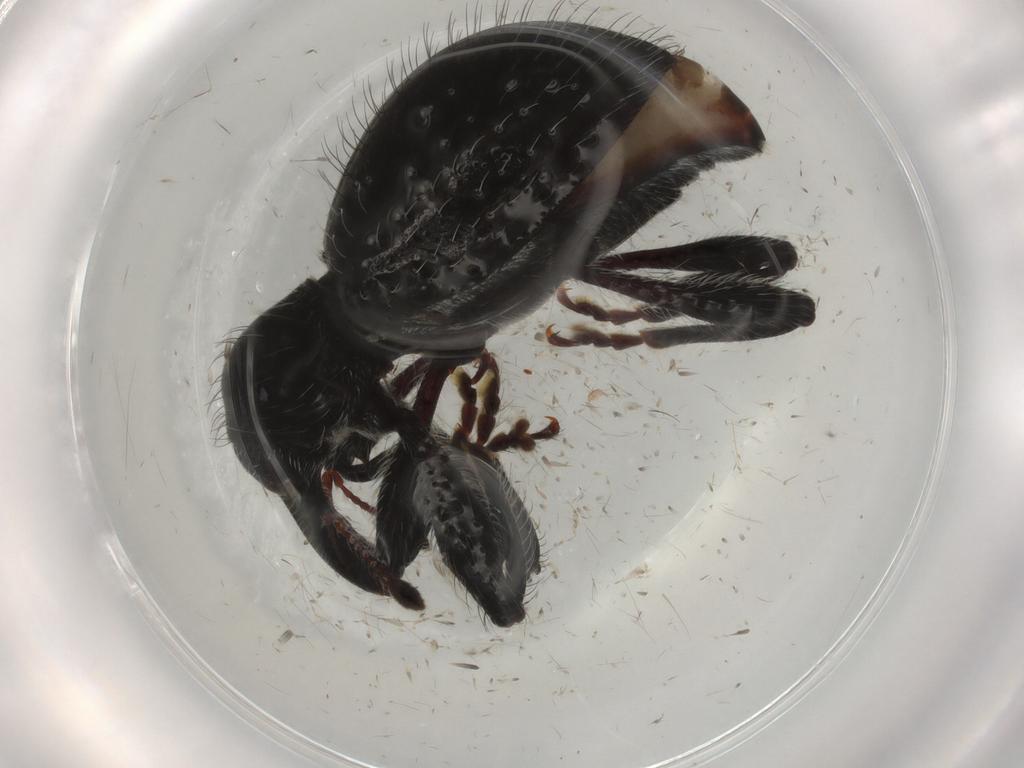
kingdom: Animalia
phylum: Arthropoda
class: Insecta
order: Coleoptera
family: Curculionidae
